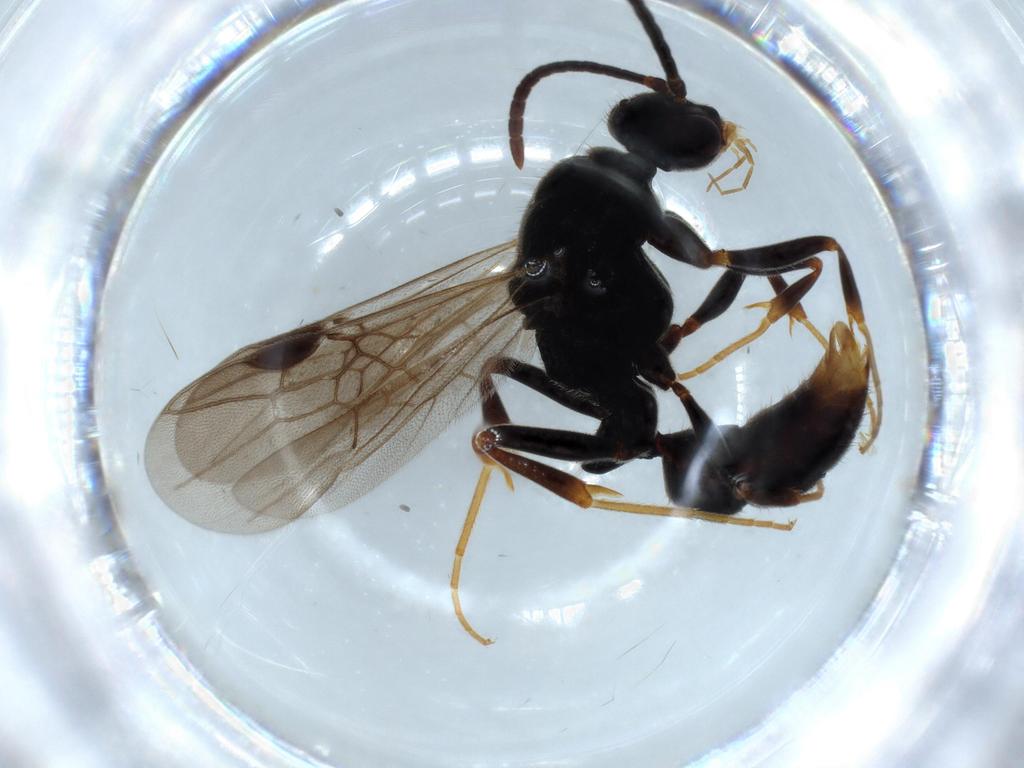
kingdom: Animalia
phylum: Arthropoda
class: Insecta
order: Hymenoptera
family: Formicidae
